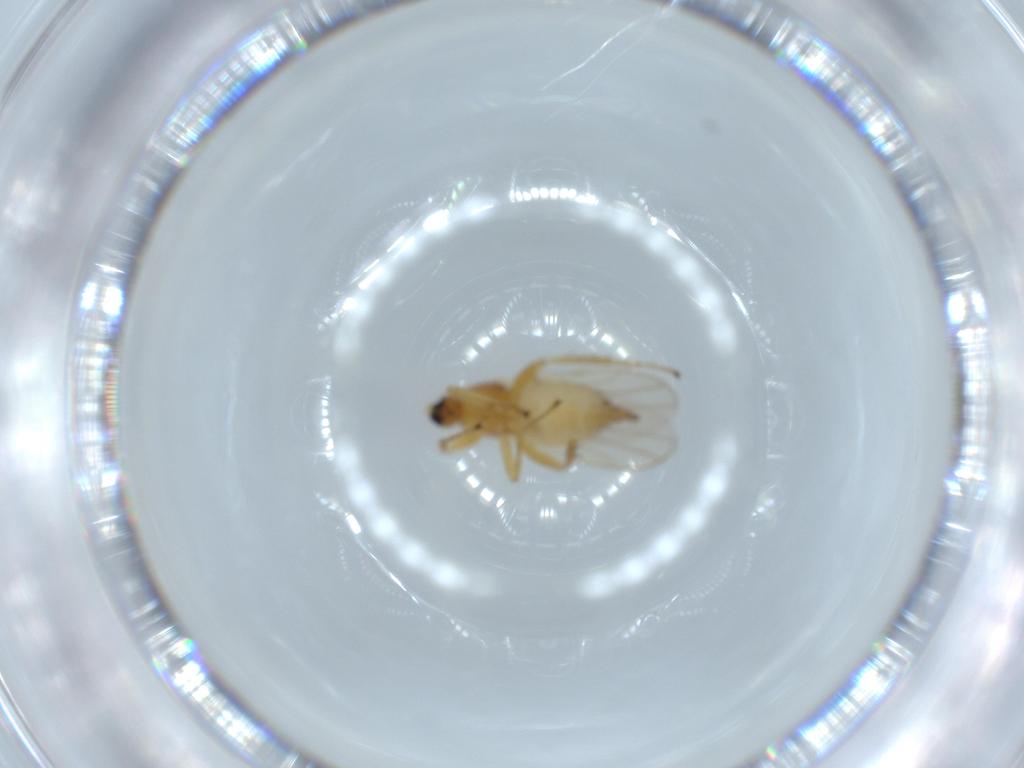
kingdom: Animalia
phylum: Arthropoda
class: Insecta
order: Diptera
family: Hybotidae
